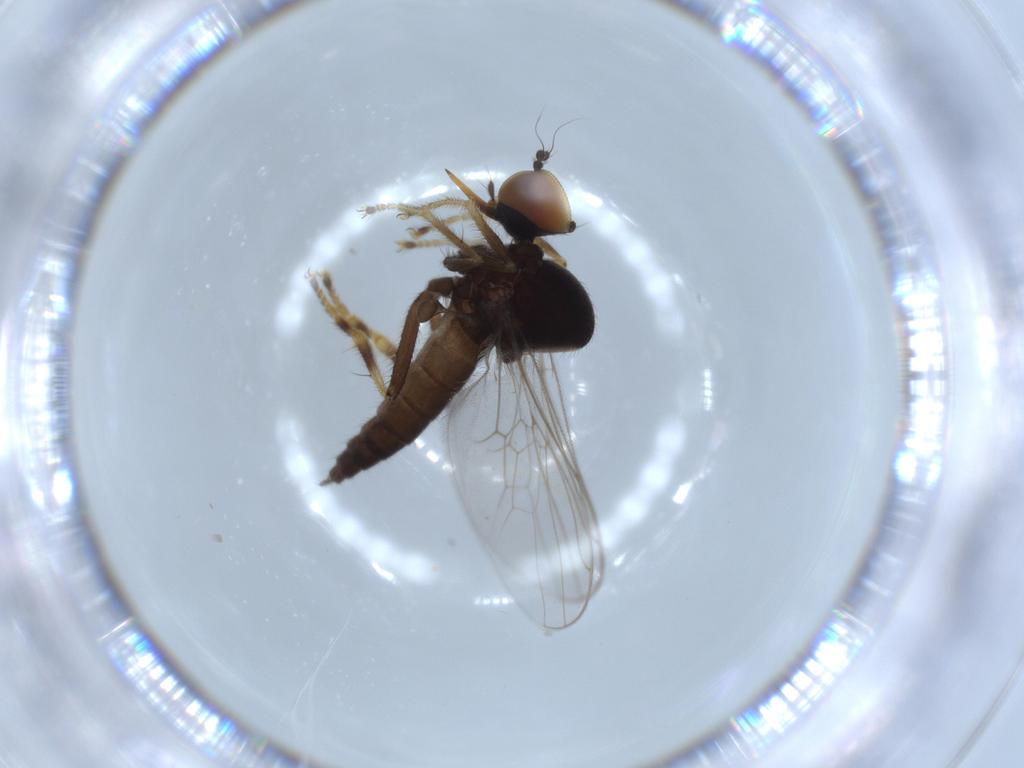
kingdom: Animalia
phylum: Arthropoda
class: Insecta
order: Diptera
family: Hybotidae
